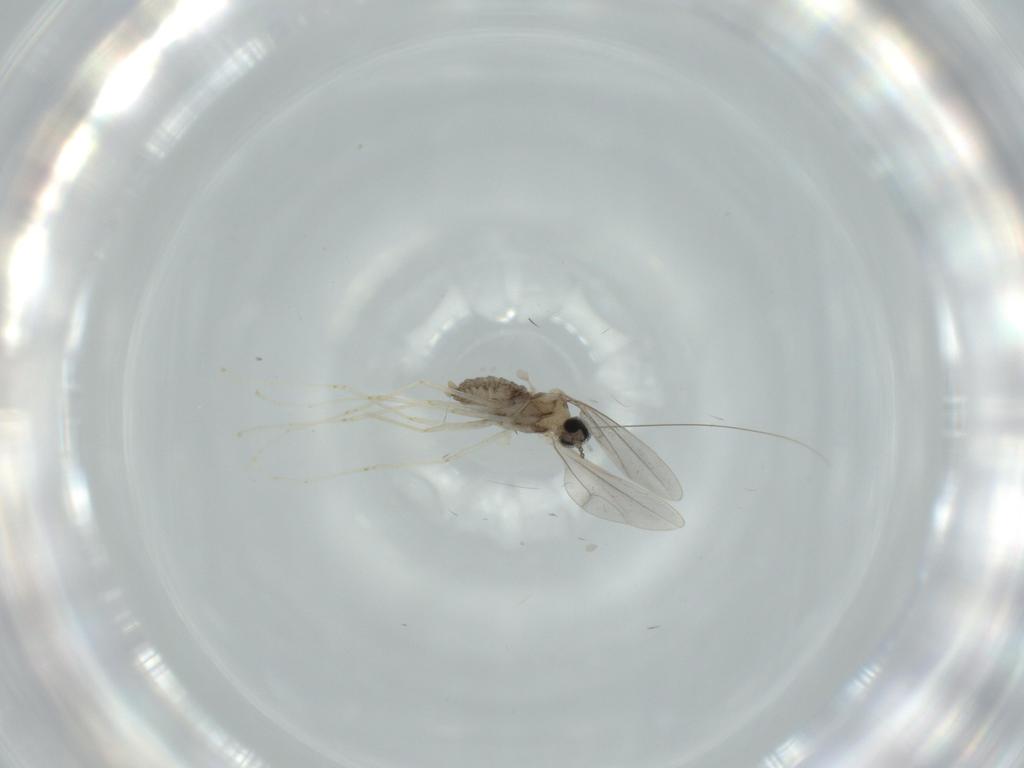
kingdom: Animalia
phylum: Arthropoda
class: Insecta
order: Diptera
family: Cecidomyiidae
